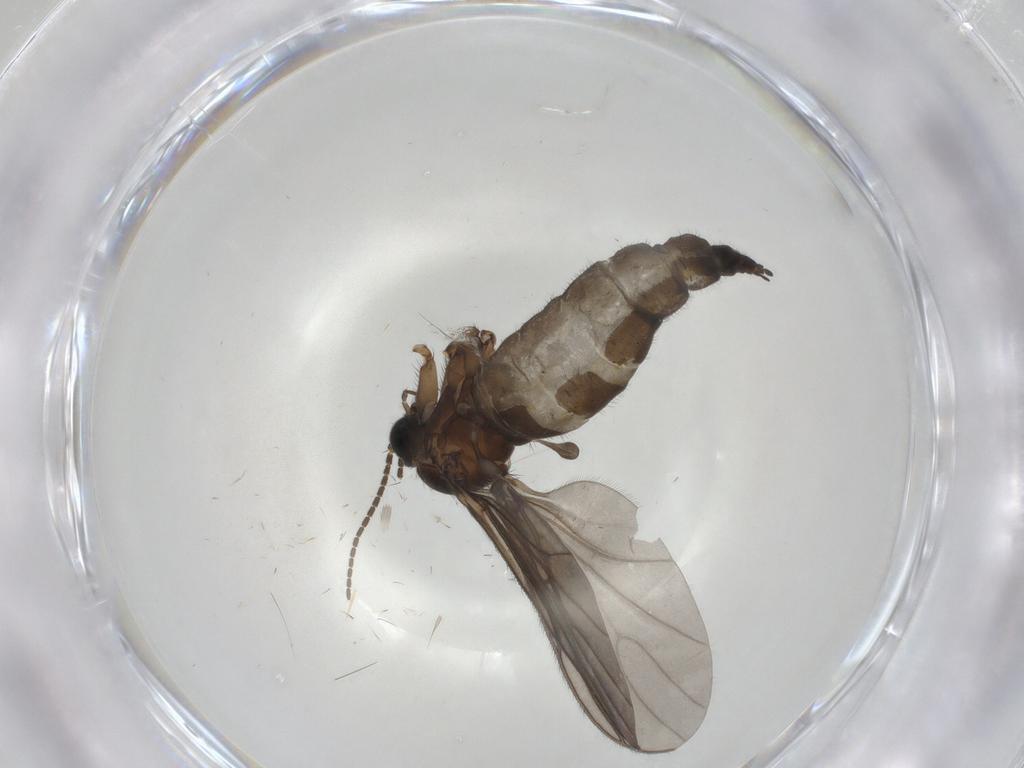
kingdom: Animalia
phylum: Arthropoda
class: Insecta
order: Diptera
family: Sciaridae
